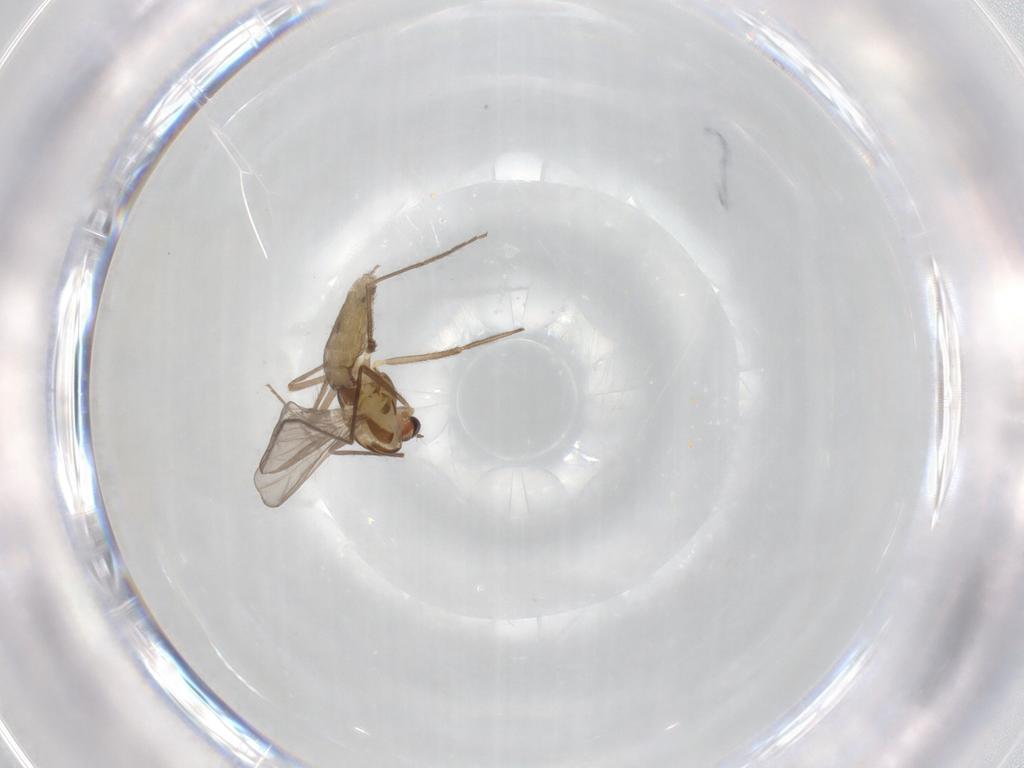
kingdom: Animalia
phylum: Arthropoda
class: Insecta
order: Diptera
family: Chironomidae
